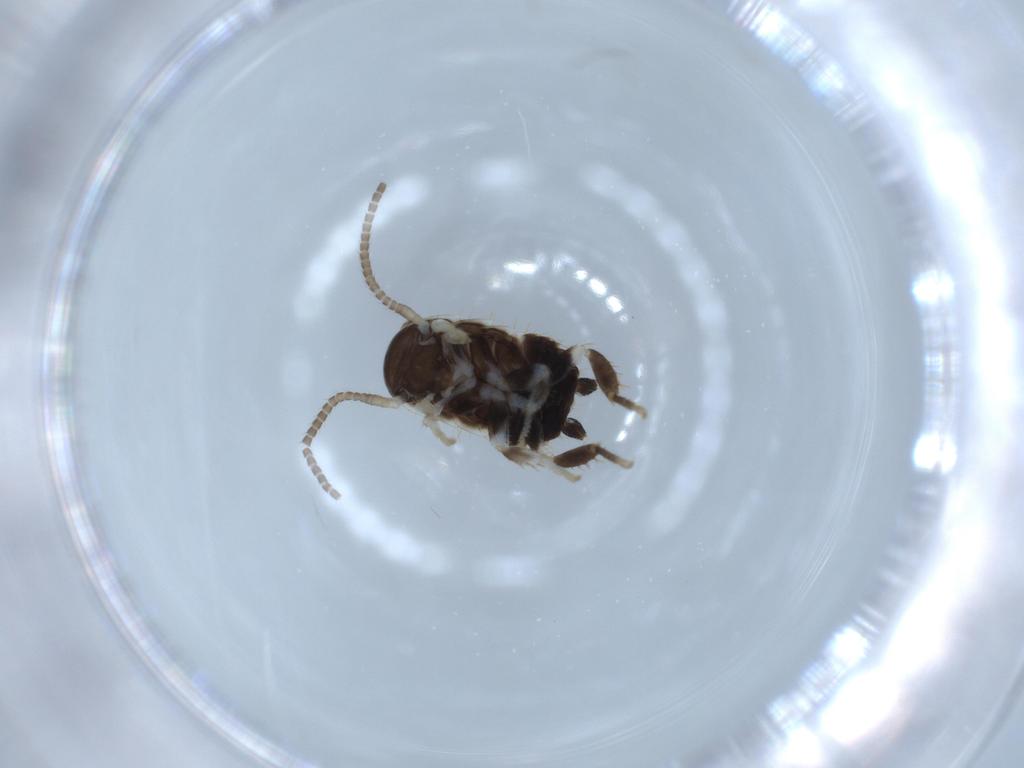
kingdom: Animalia
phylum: Arthropoda
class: Insecta
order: Blattodea
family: Ectobiidae
